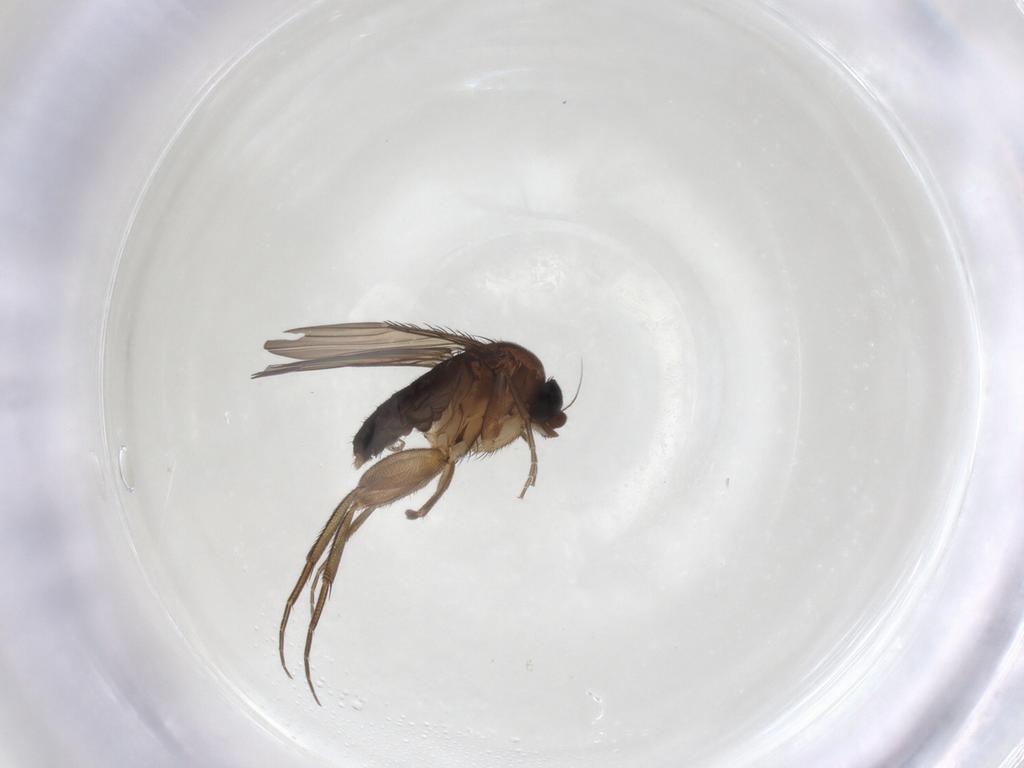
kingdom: Animalia
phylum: Arthropoda
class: Insecta
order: Diptera
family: Phoridae
